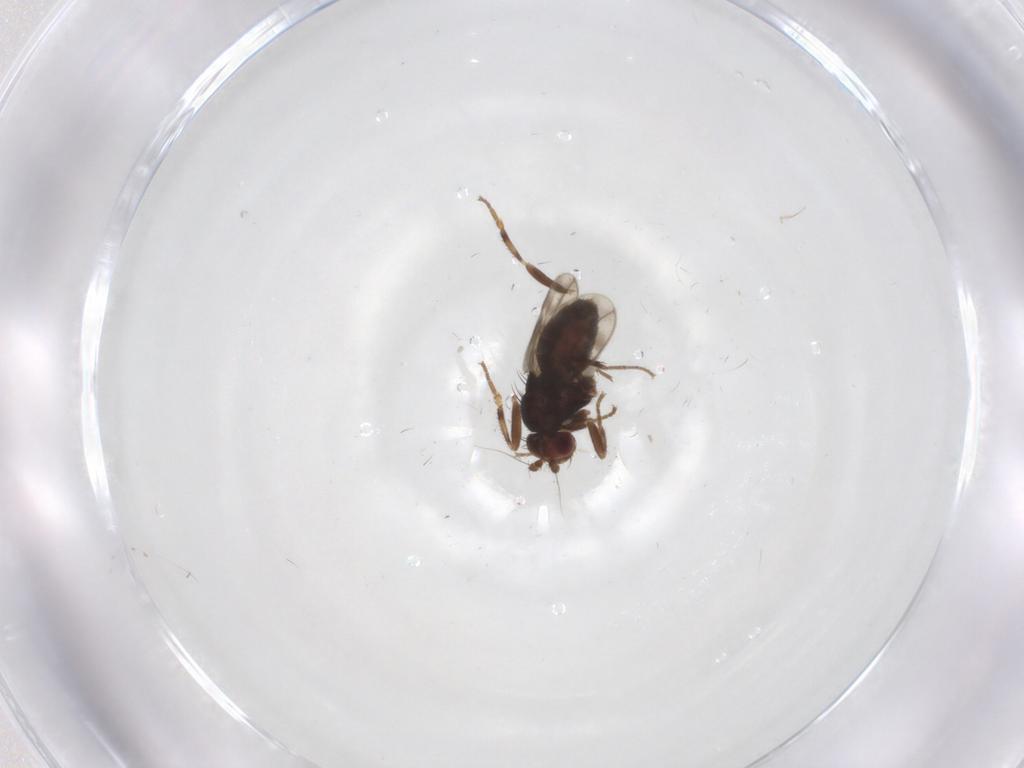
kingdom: Animalia
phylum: Arthropoda
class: Insecta
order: Diptera
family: Sphaeroceridae
